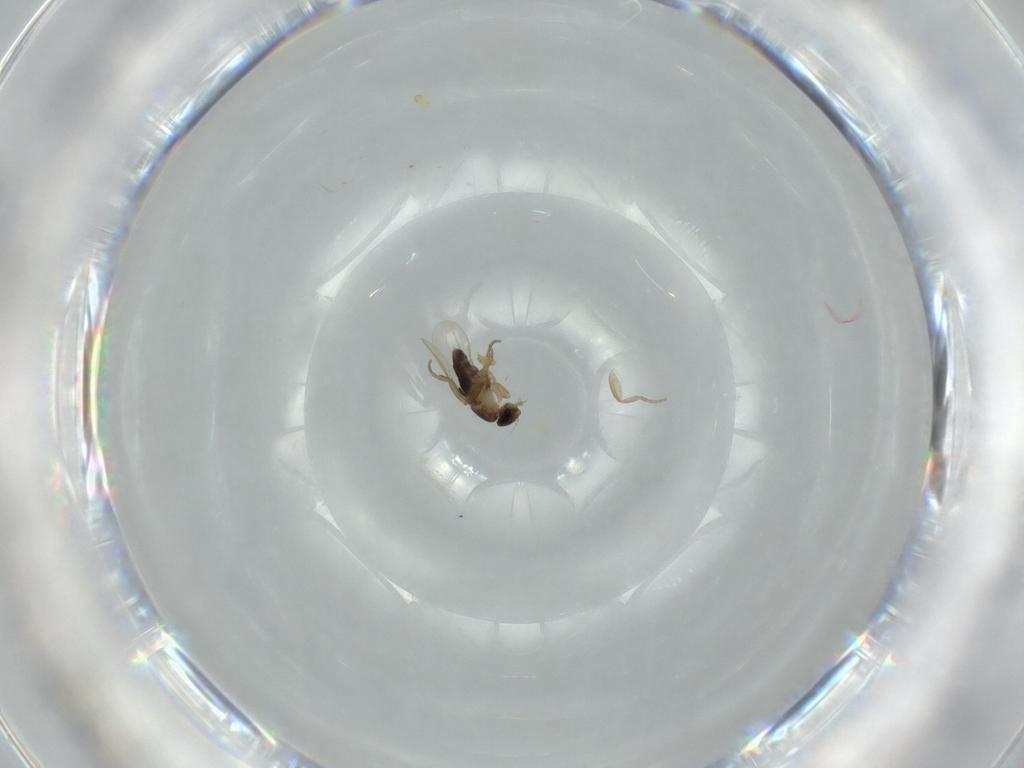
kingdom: Animalia
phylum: Arthropoda
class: Insecta
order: Diptera
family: Phoridae
